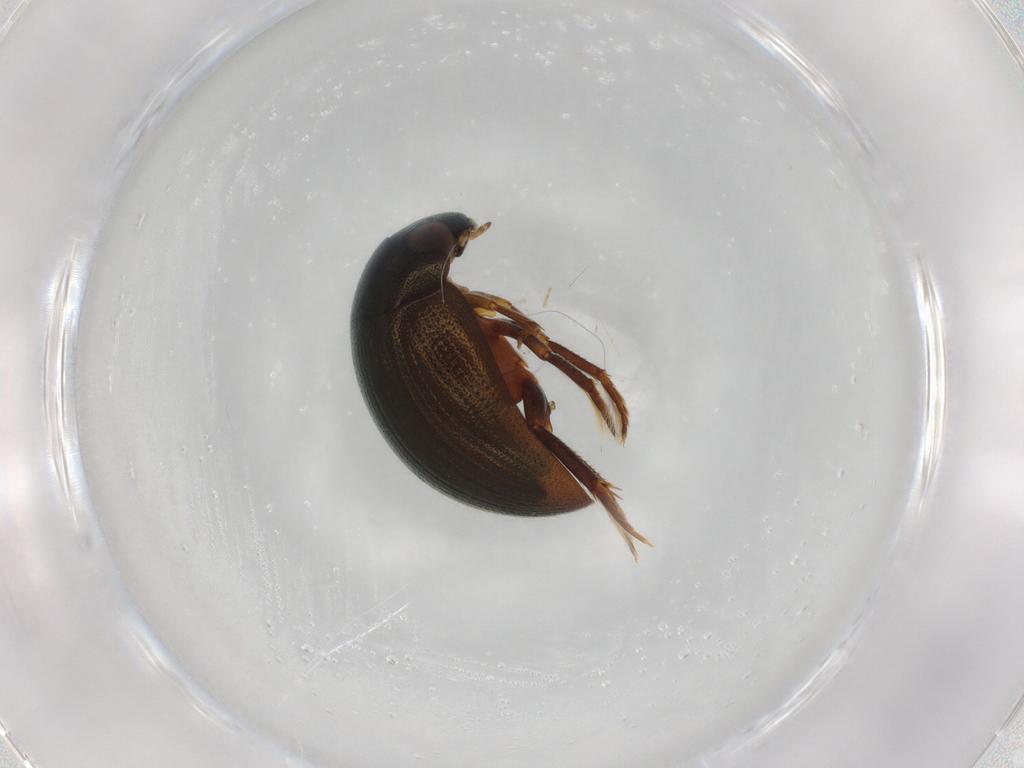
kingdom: Animalia
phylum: Arthropoda
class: Insecta
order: Coleoptera
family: Hydrophilidae
